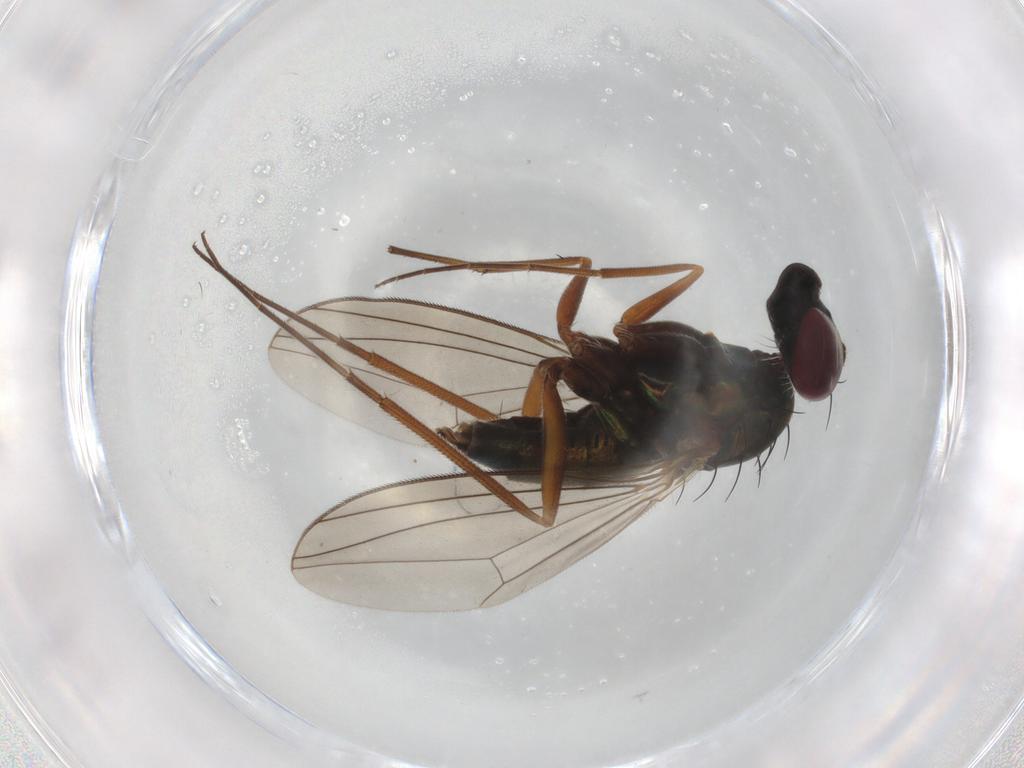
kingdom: Animalia
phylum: Arthropoda
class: Insecta
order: Diptera
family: Dolichopodidae
